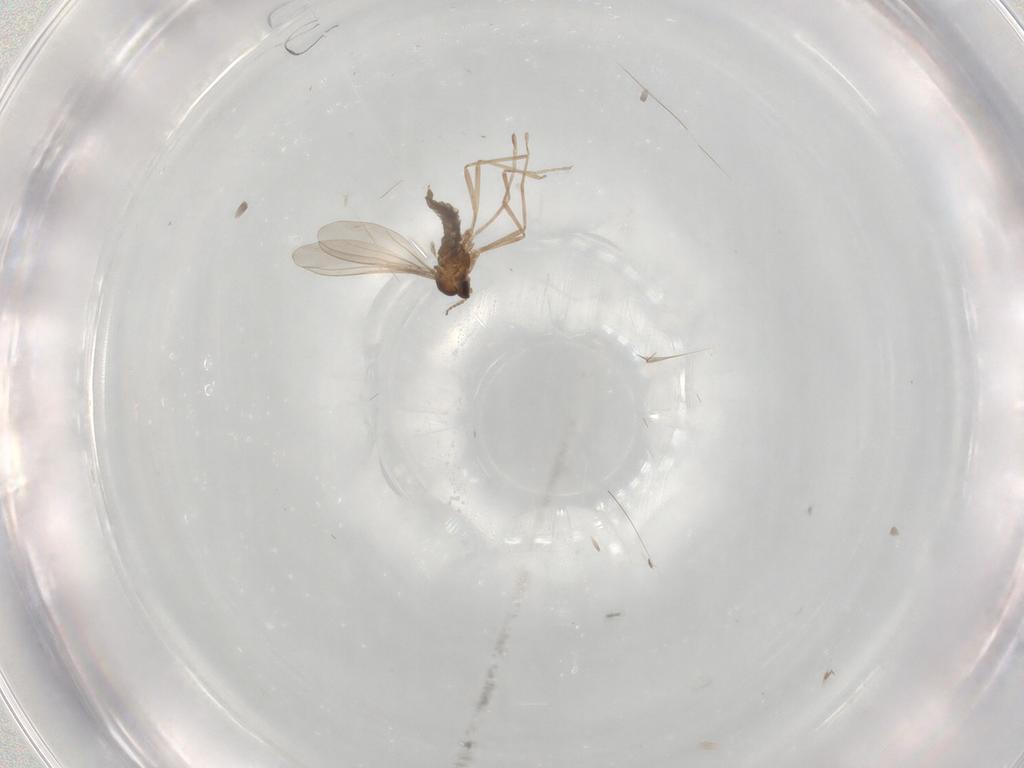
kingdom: Animalia
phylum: Arthropoda
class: Insecta
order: Diptera
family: Cecidomyiidae
